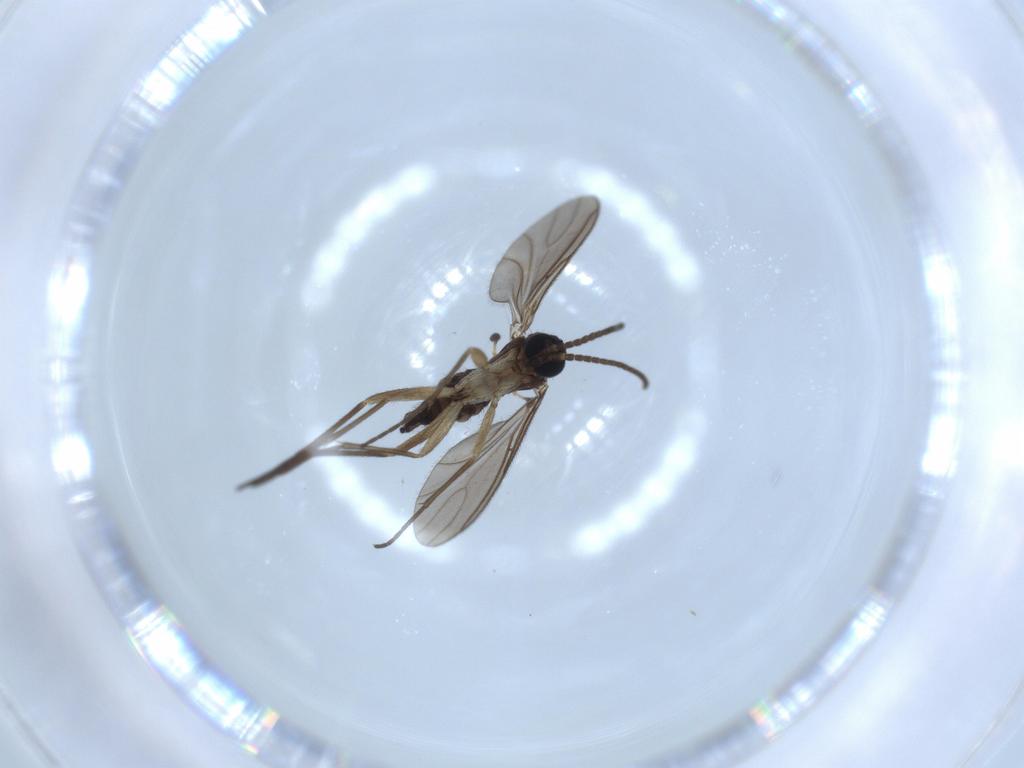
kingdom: Animalia
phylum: Arthropoda
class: Insecta
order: Diptera
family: Sciaridae
